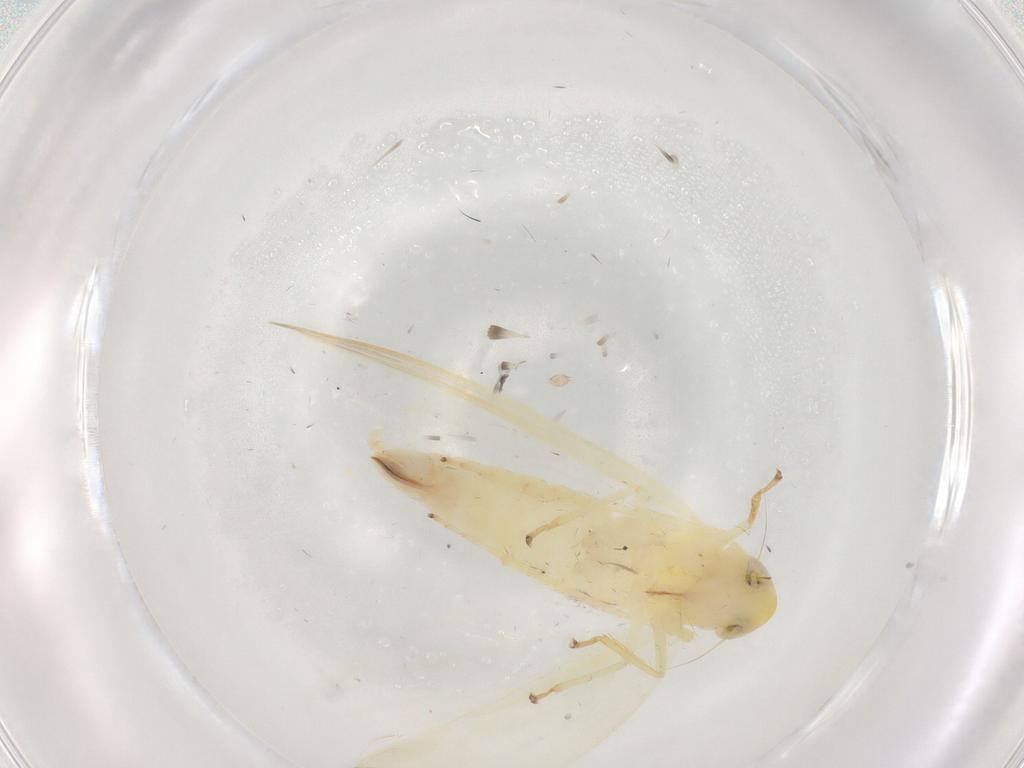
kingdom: Animalia
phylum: Arthropoda
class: Insecta
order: Hemiptera
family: Cicadellidae
